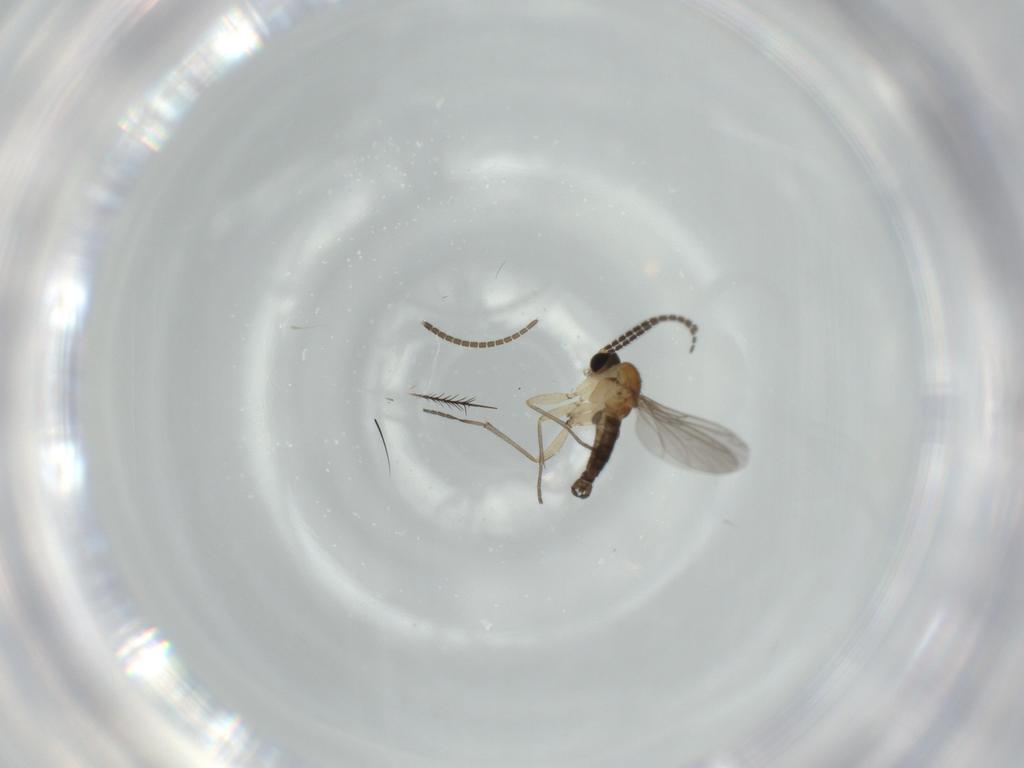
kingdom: Animalia
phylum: Arthropoda
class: Insecta
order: Diptera
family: Sciaridae
